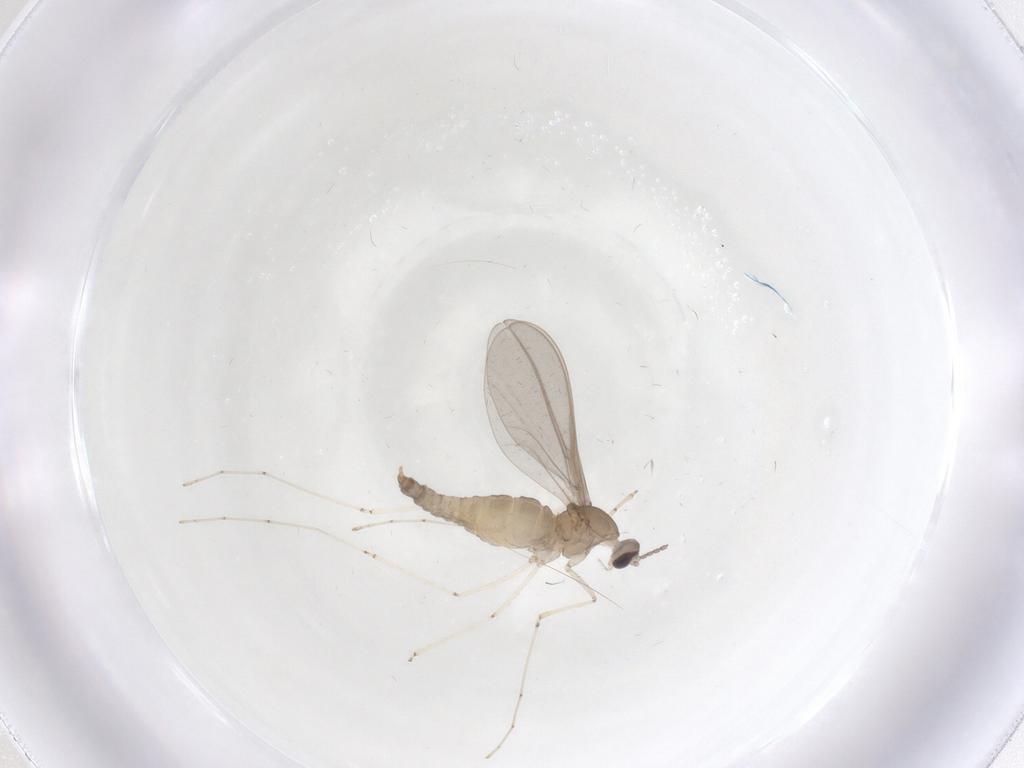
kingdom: Animalia
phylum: Arthropoda
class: Insecta
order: Diptera
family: Cecidomyiidae
